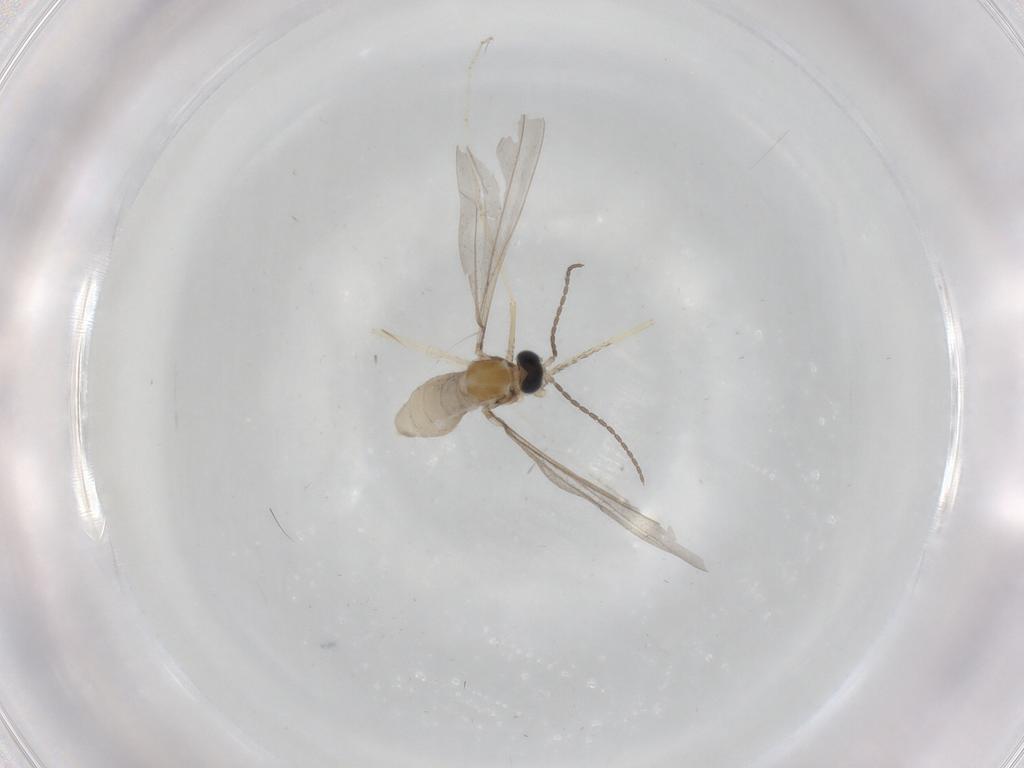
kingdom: Animalia
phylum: Arthropoda
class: Insecta
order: Diptera
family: Cecidomyiidae
